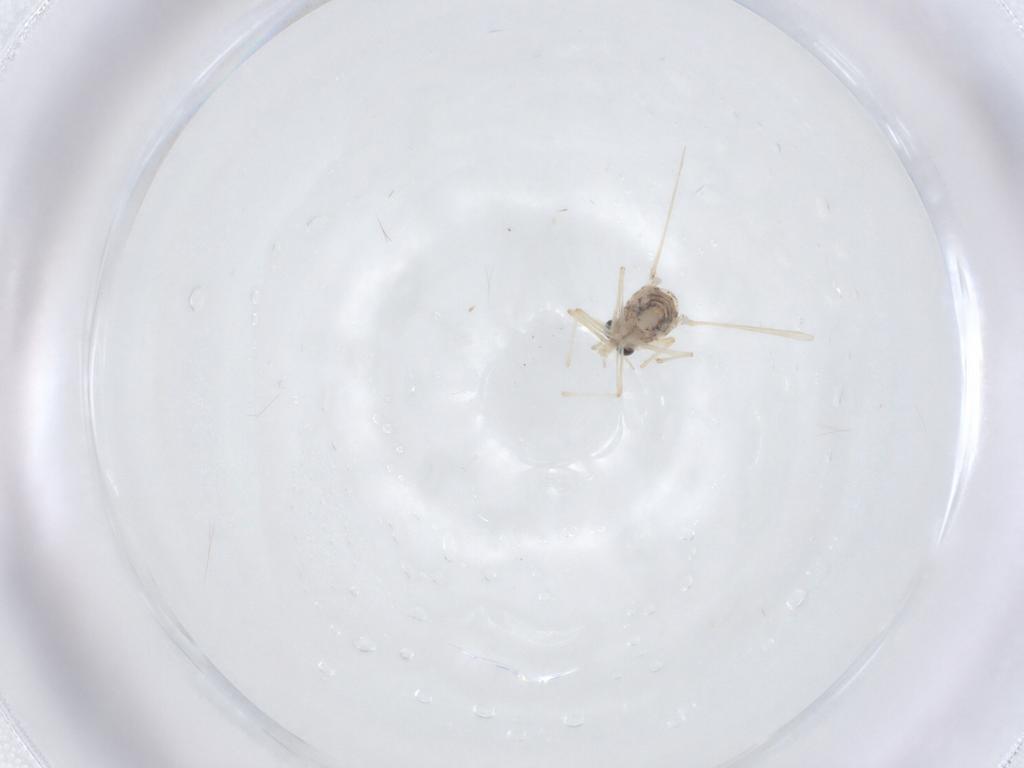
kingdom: Animalia
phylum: Arthropoda
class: Insecta
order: Diptera
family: Chironomidae
